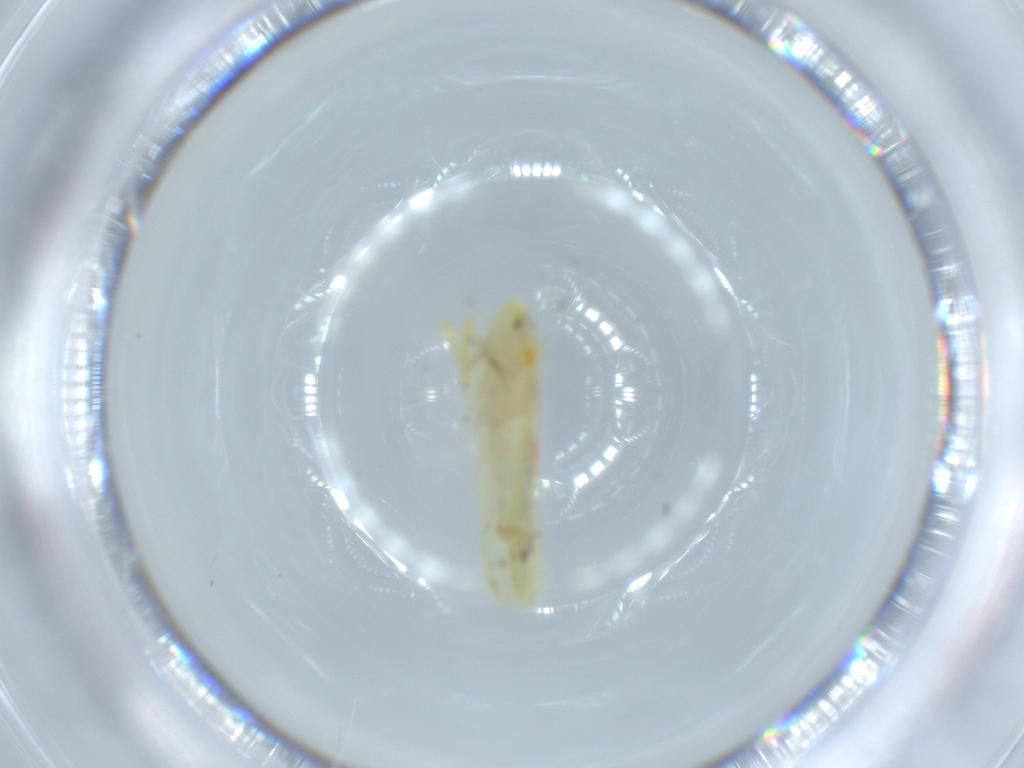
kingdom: Animalia
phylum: Arthropoda
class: Insecta
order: Hemiptera
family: Cicadellidae
